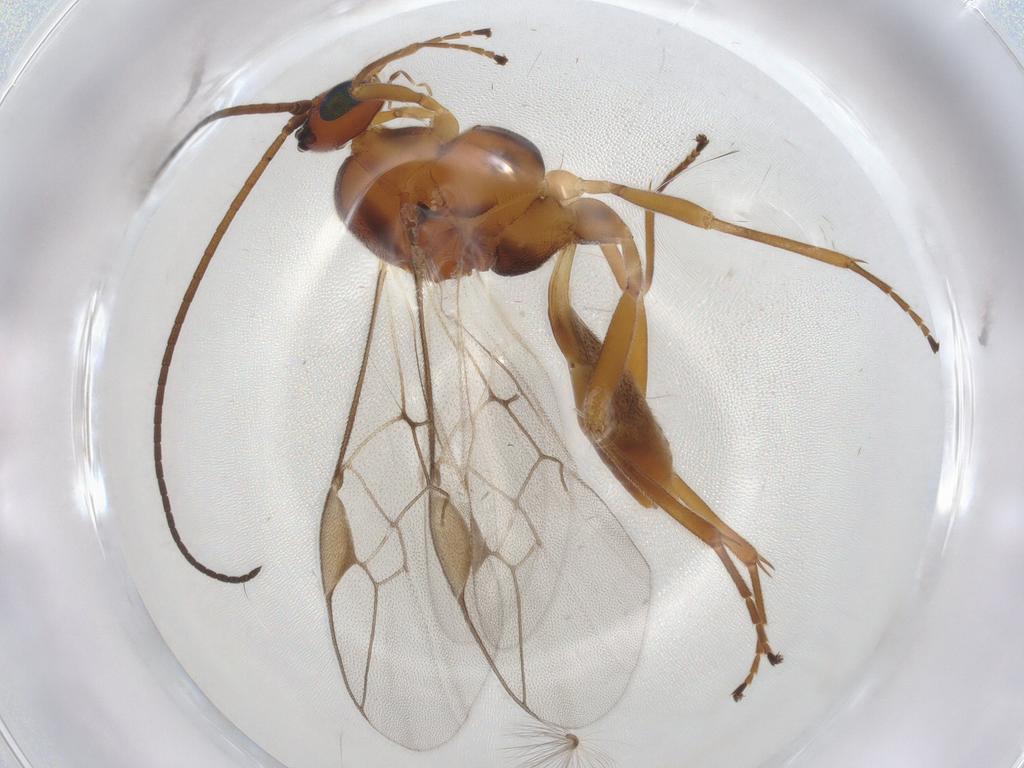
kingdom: Animalia
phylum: Arthropoda
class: Insecta
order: Hymenoptera
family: Braconidae
